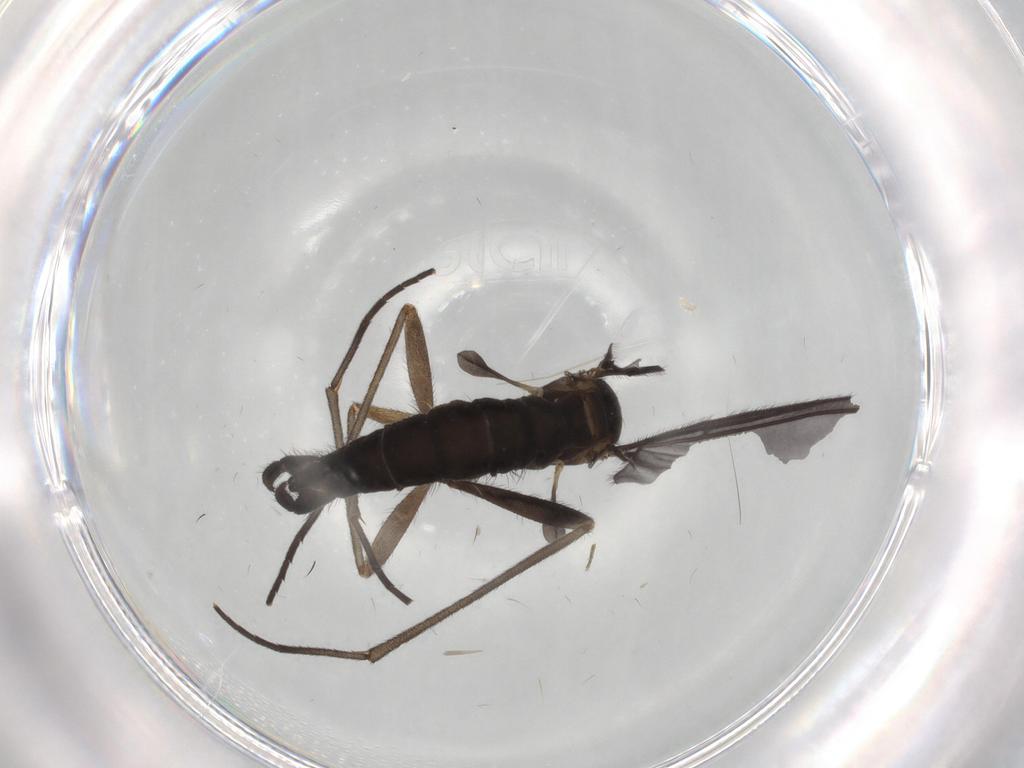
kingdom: Animalia
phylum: Arthropoda
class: Insecta
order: Diptera
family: Sciaridae
